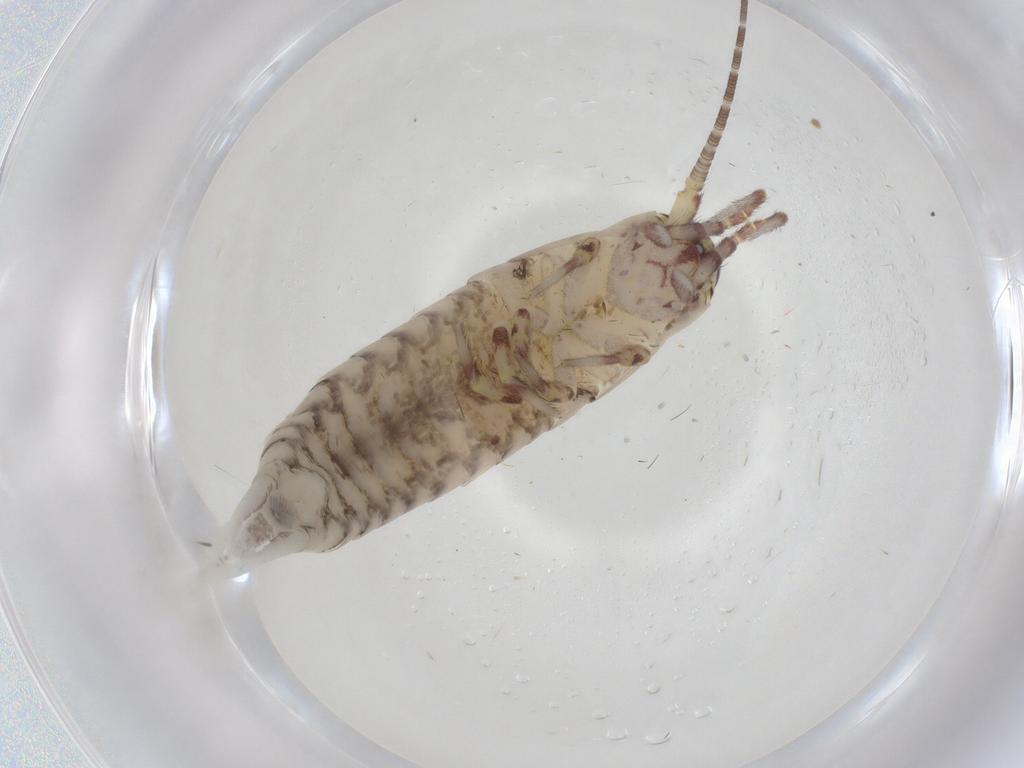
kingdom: Animalia
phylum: Arthropoda
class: Insecta
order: Archaeognatha
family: Meinertellidae
